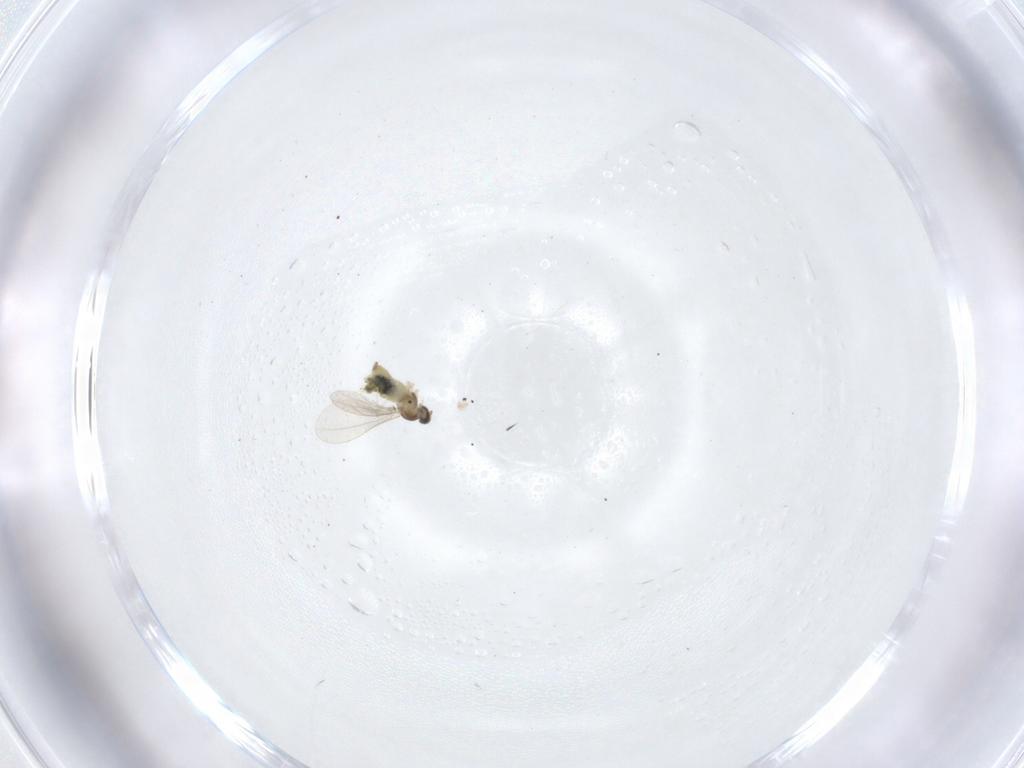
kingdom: Animalia
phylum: Arthropoda
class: Insecta
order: Diptera
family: Cecidomyiidae
